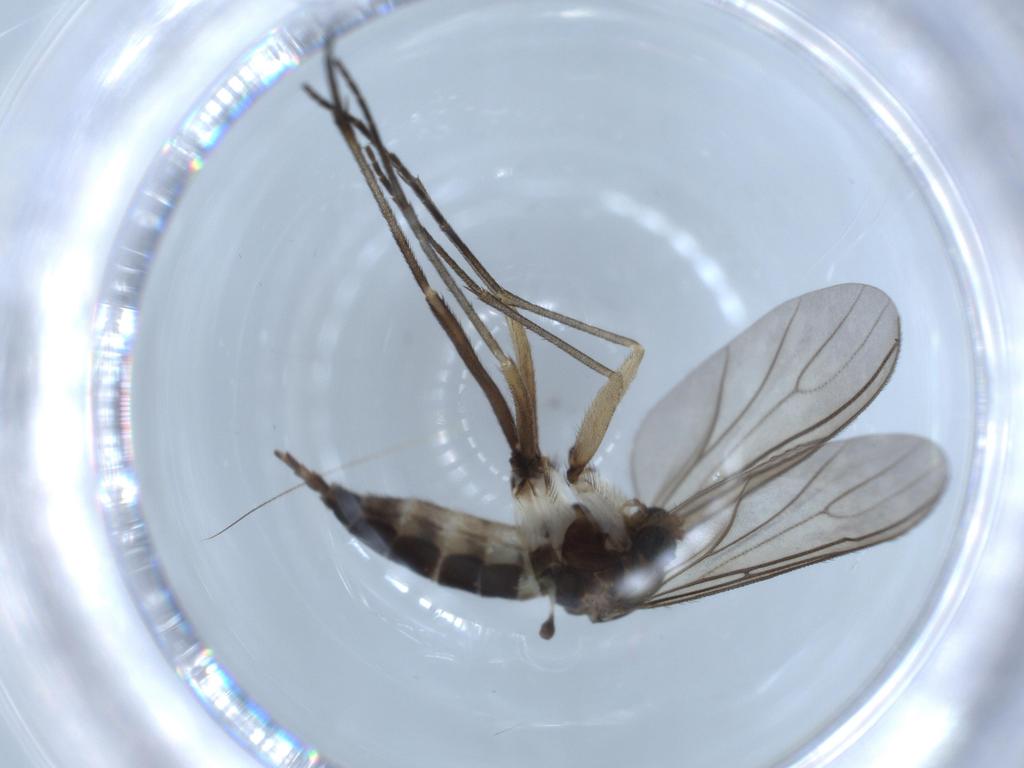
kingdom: Animalia
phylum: Arthropoda
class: Insecta
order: Diptera
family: Sciaridae
